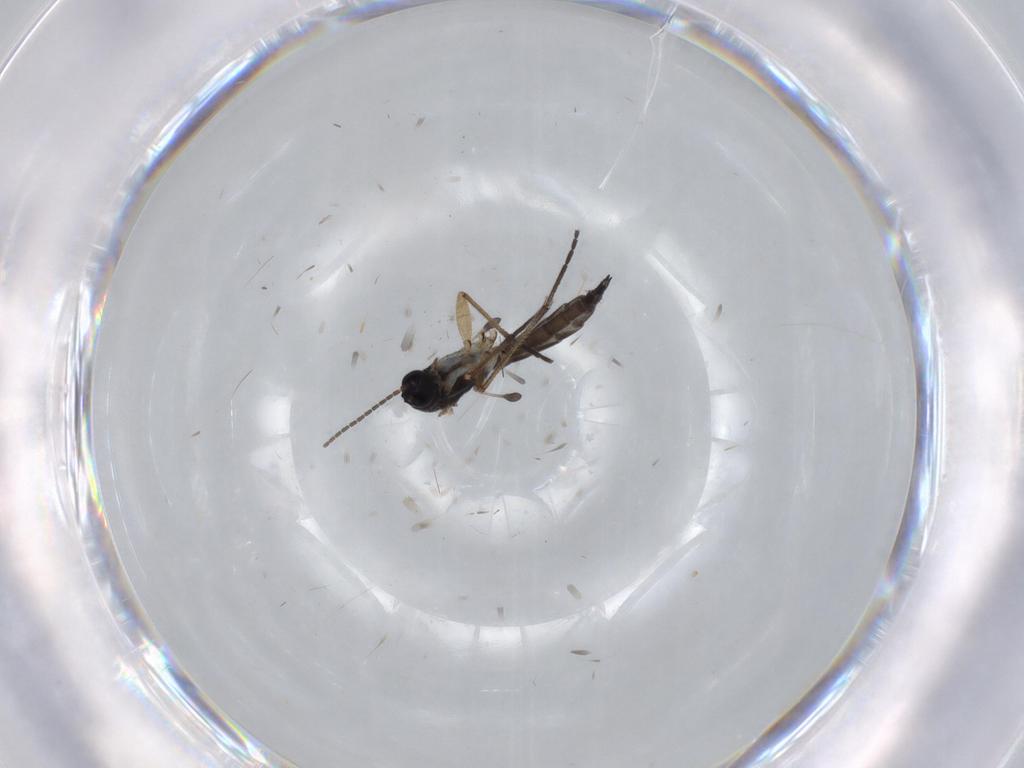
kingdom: Animalia
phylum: Arthropoda
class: Insecta
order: Diptera
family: Sciaridae
